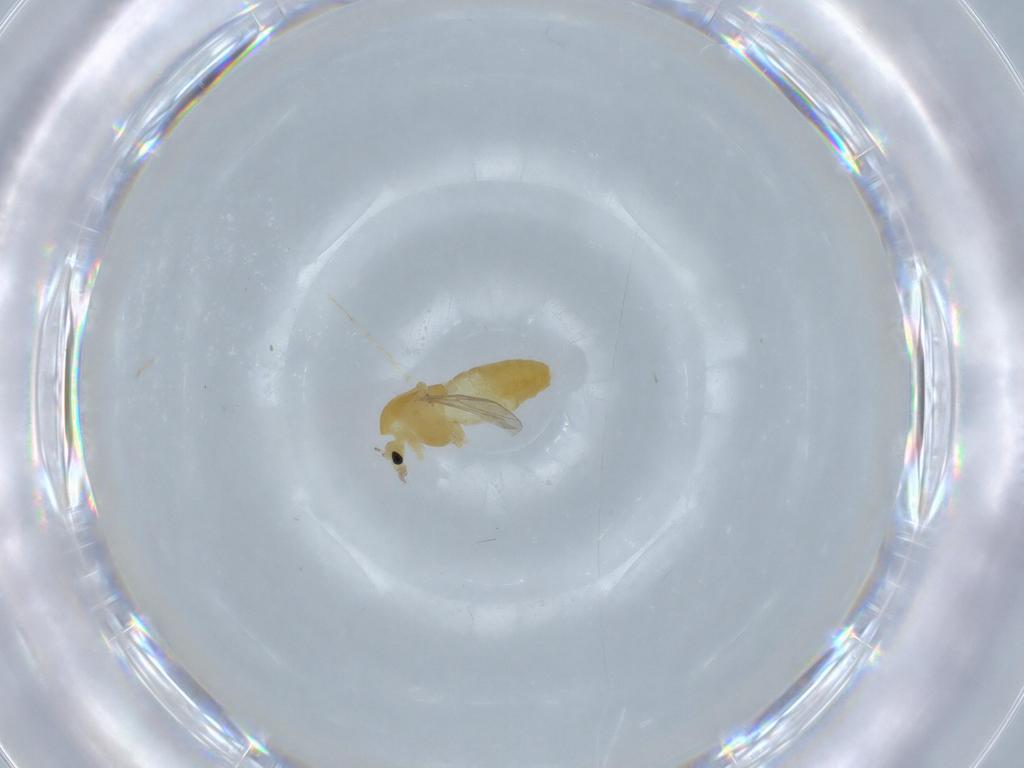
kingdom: Animalia
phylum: Arthropoda
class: Insecta
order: Diptera
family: Chironomidae
